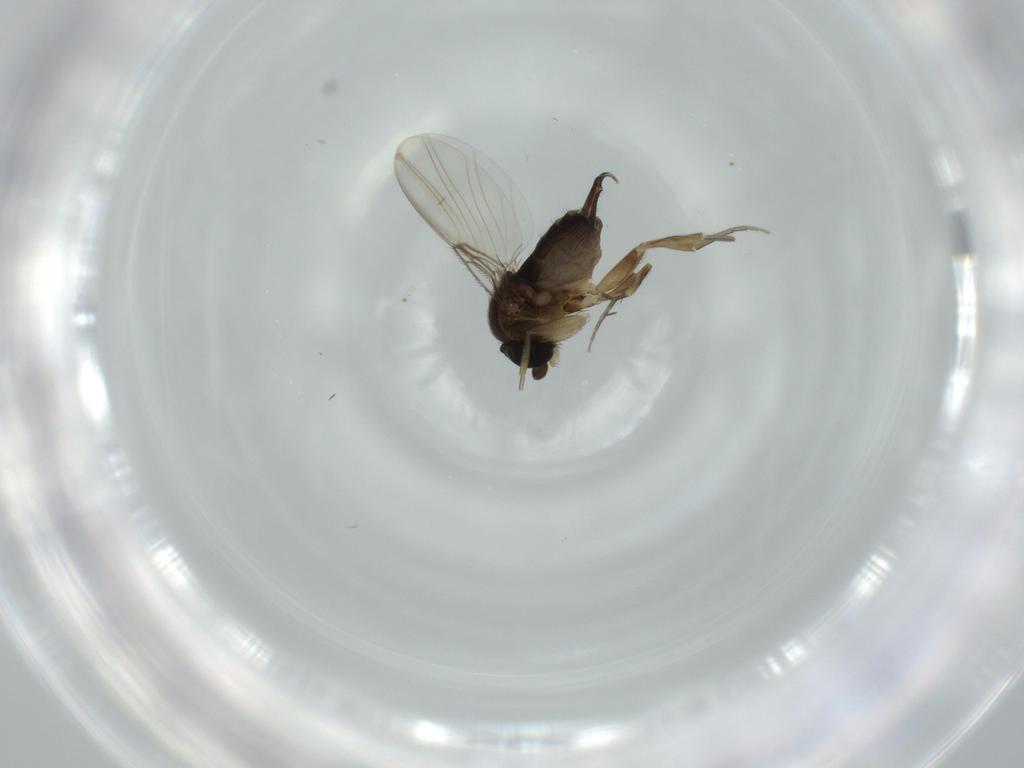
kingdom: Animalia
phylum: Arthropoda
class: Insecta
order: Diptera
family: Phoridae
